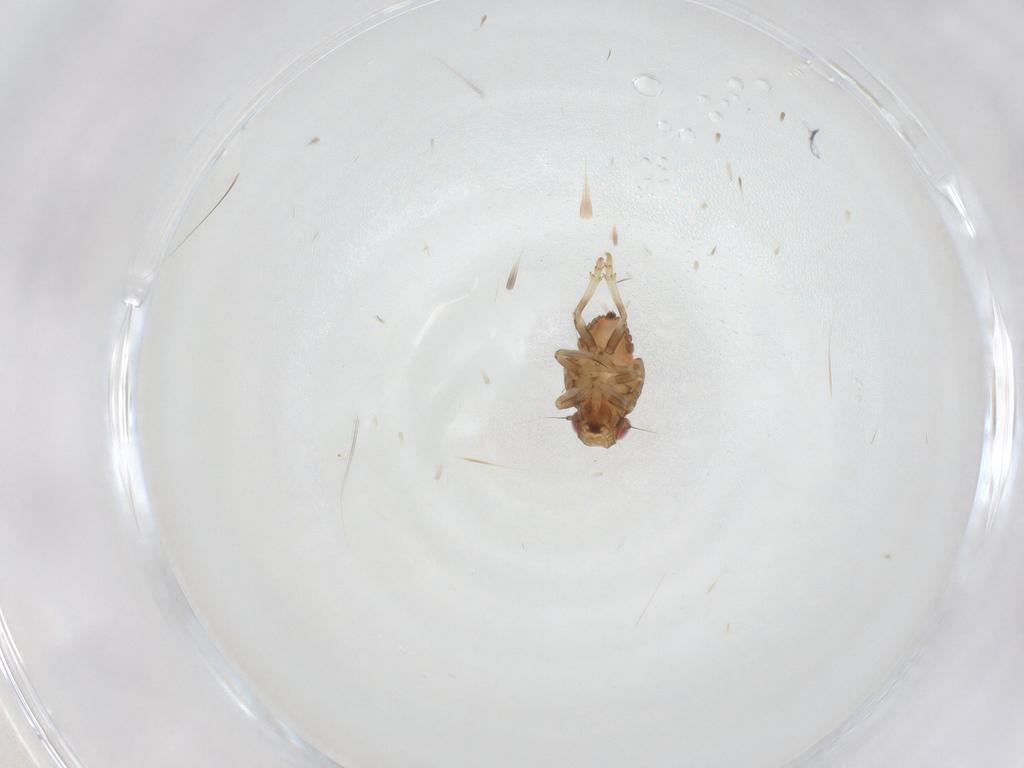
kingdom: Animalia
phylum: Arthropoda
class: Insecta
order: Hemiptera
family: Issidae
